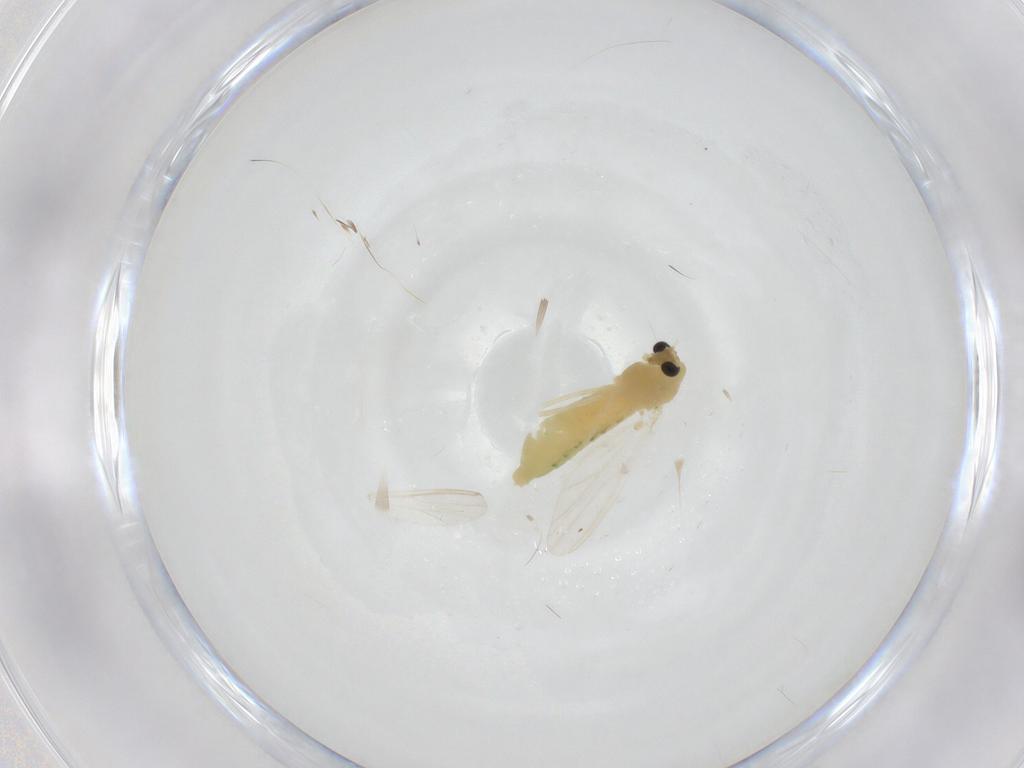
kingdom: Animalia
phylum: Arthropoda
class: Insecta
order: Diptera
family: Chironomidae
